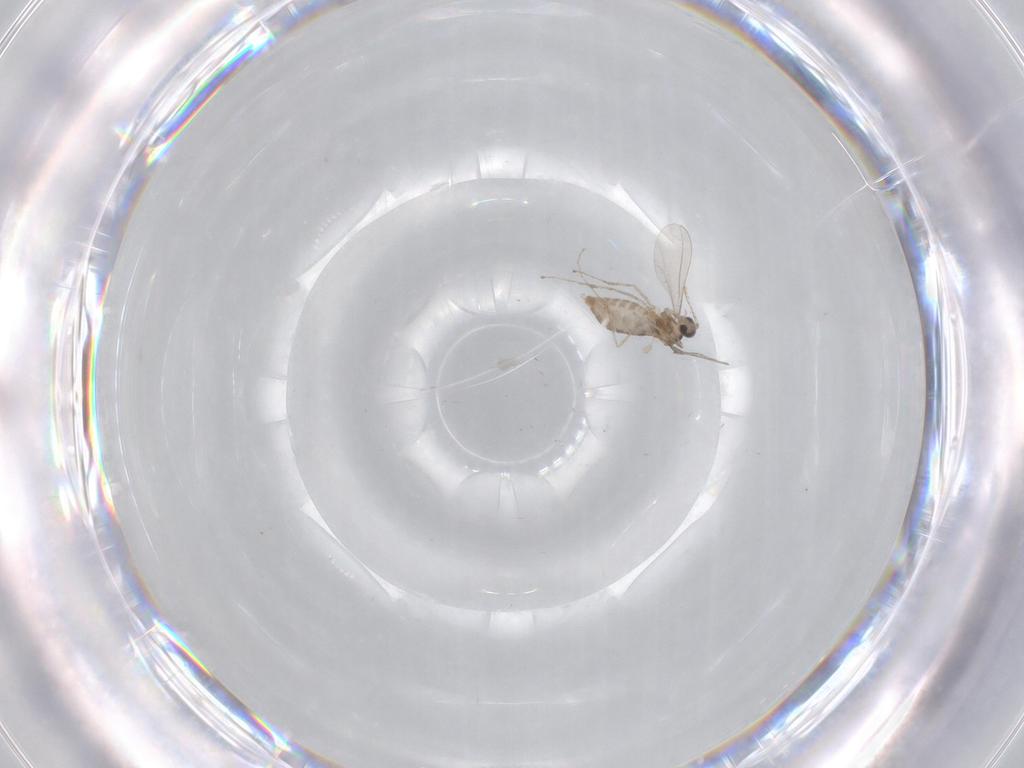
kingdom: Animalia
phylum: Arthropoda
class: Insecta
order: Diptera
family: Chironomidae
